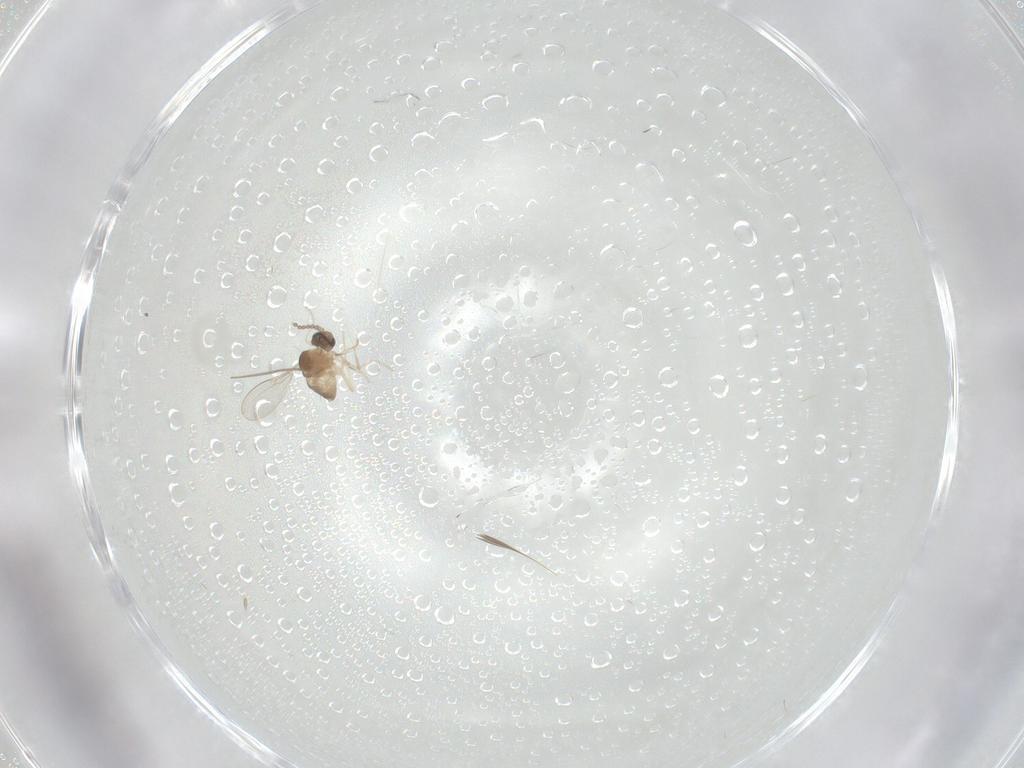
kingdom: Animalia
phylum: Arthropoda
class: Insecta
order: Diptera
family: Cecidomyiidae
